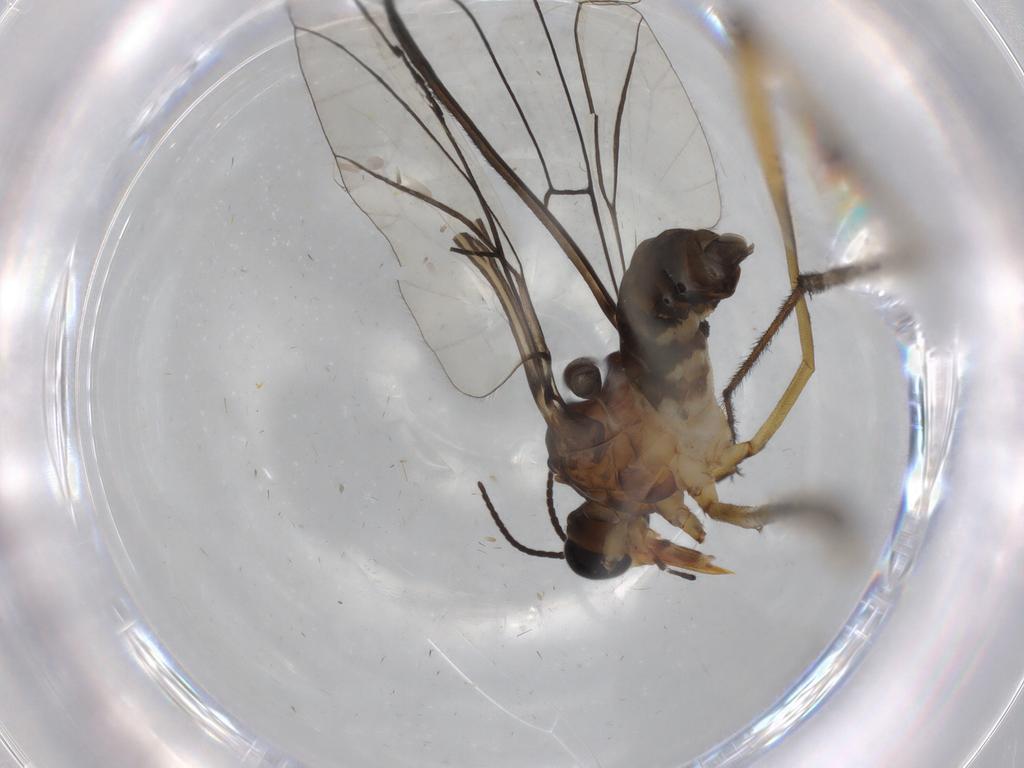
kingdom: Animalia
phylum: Arthropoda
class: Insecta
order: Diptera
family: Blephariceridae
